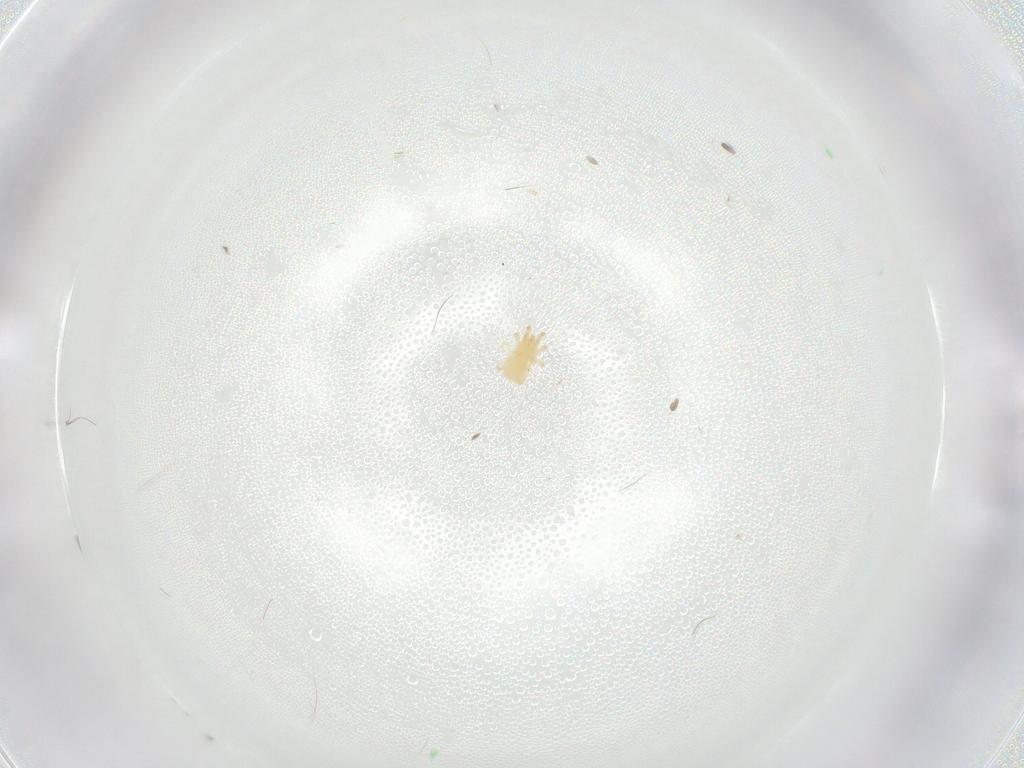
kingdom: Animalia
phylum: Arthropoda
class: Arachnida
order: Mesostigmata
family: Phytoseiidae
